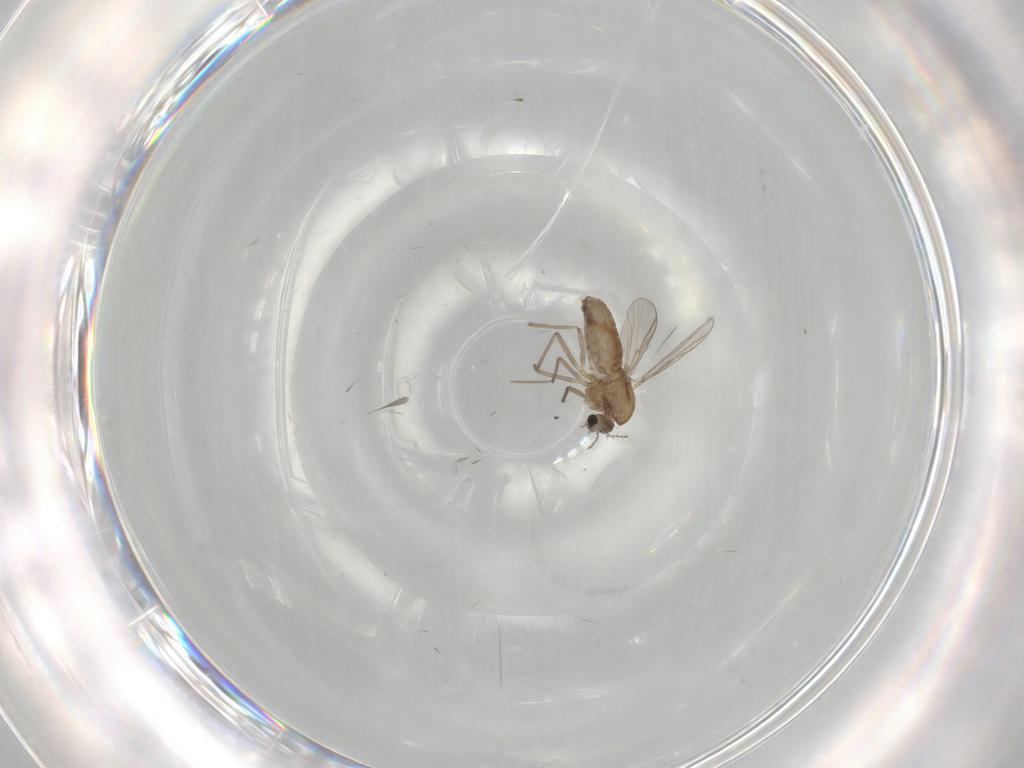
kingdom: Animalia
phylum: Arthropoda
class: Insecta
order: Diptera
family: Chironomidae
